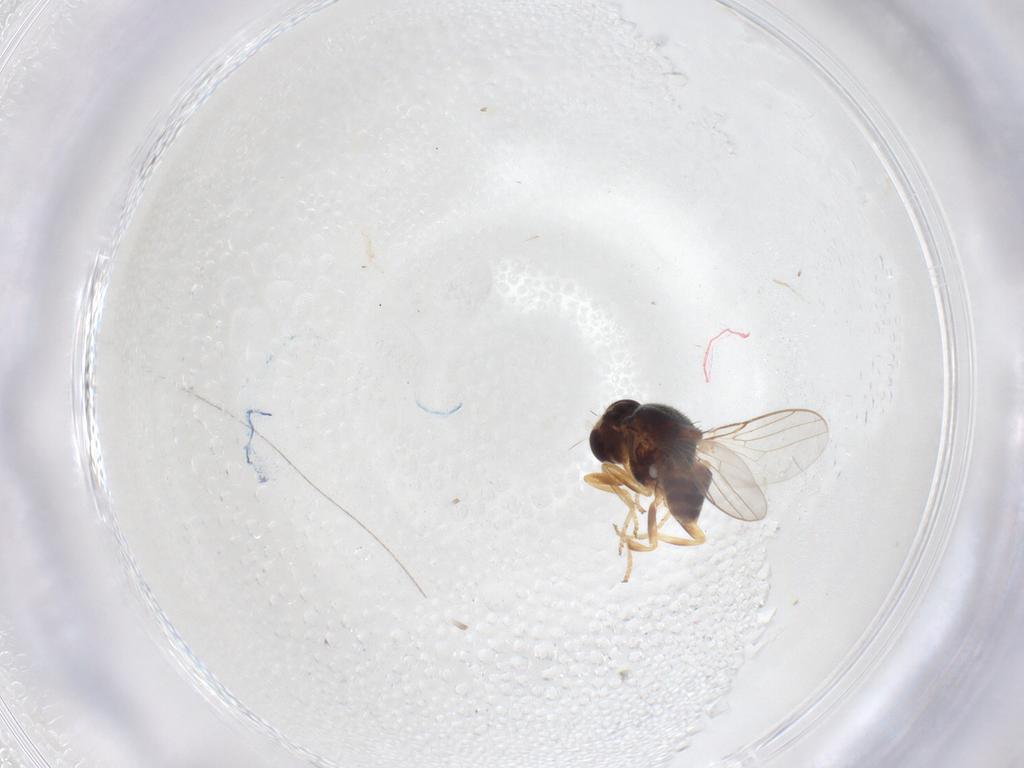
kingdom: Animalia
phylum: Arthropoda
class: Insecta
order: Diptera
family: Chloropidae
